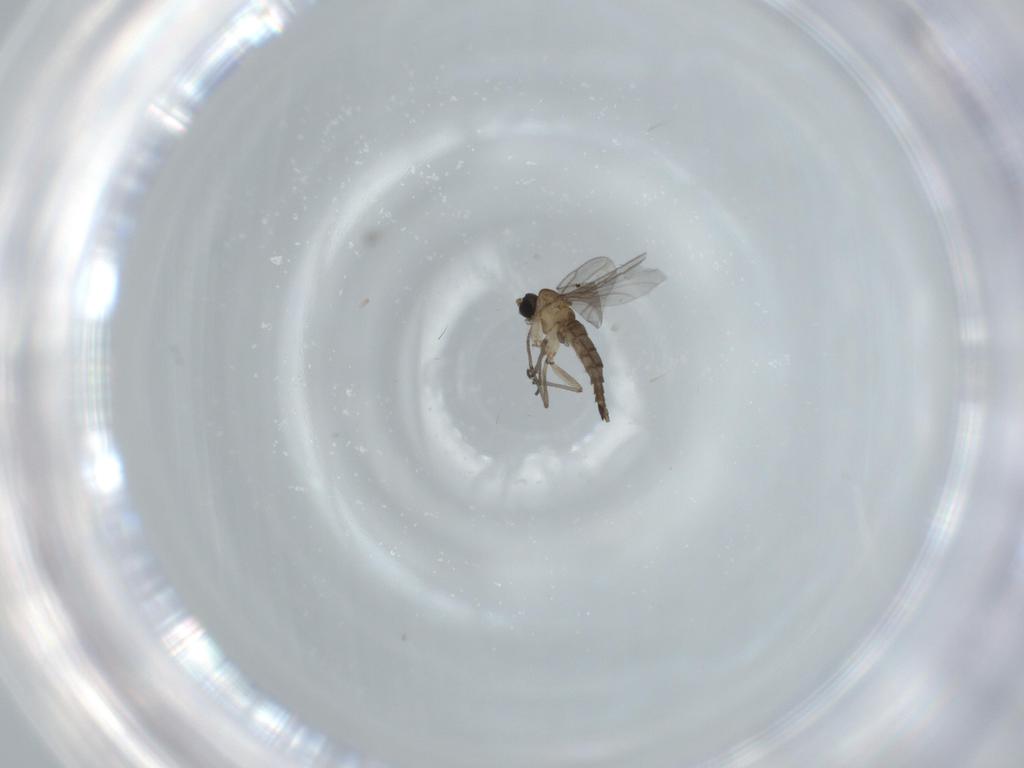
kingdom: Animalia
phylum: Arthropoda
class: Insecta
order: Diptera
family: Sciaridae
